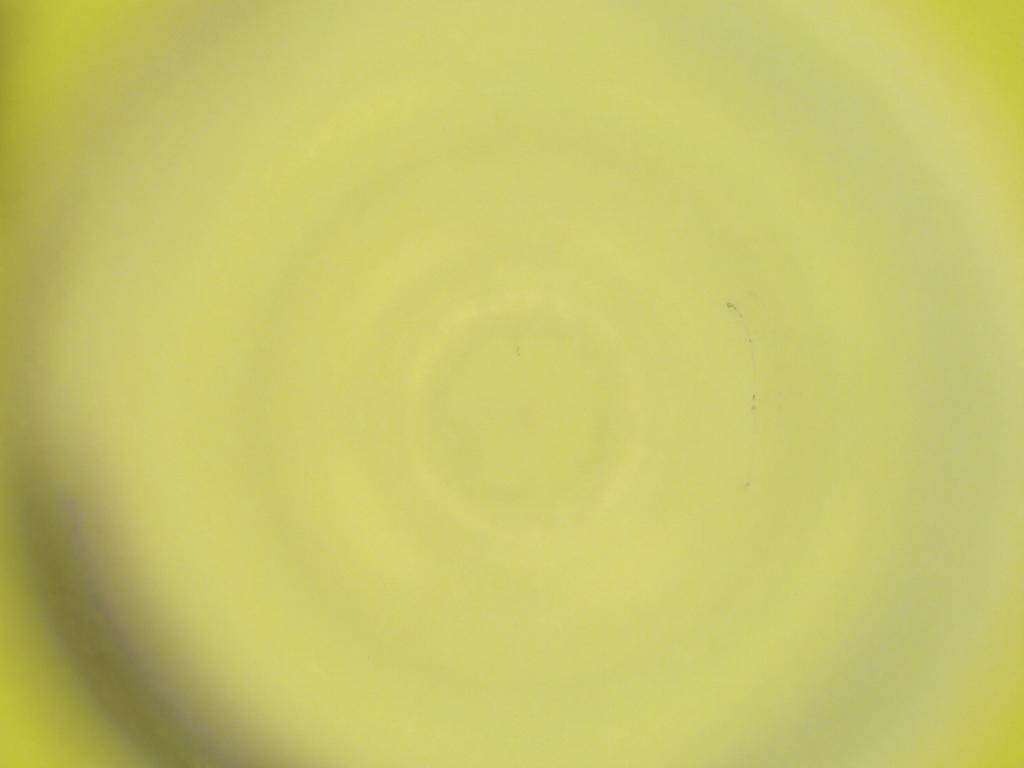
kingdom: Animalia
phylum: Arthropoda
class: Insecta
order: Diptera
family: Cecidomyiidae
